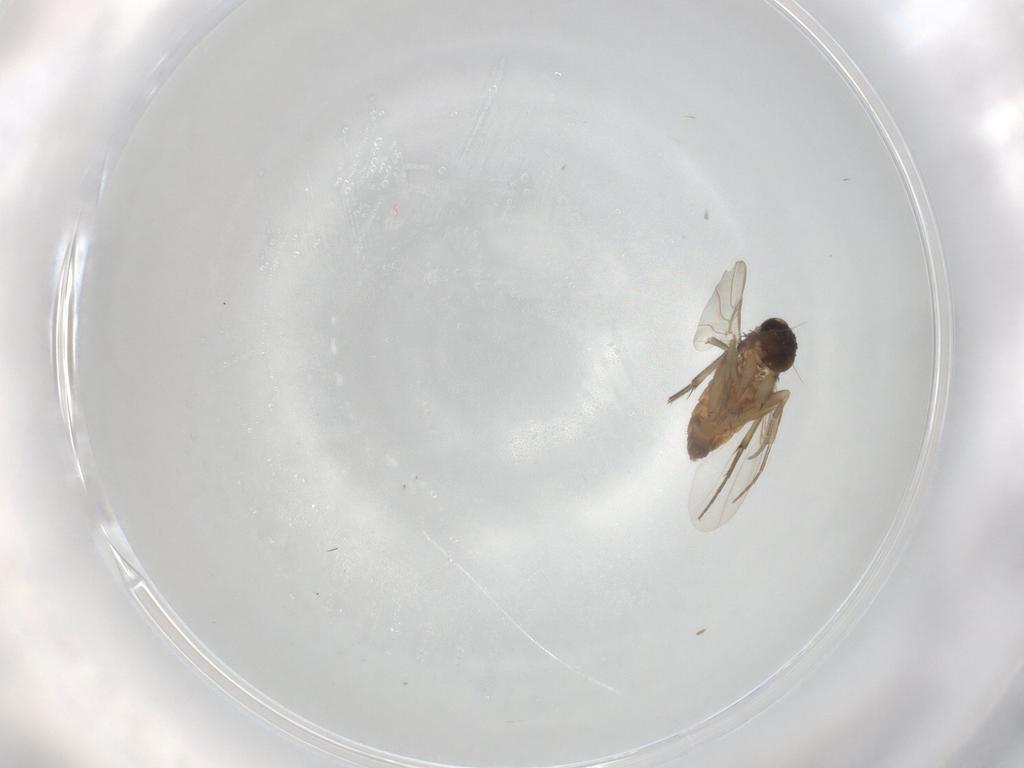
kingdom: Animalia
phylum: Arthropoda
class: Insecta
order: Diptera
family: Phoridae
